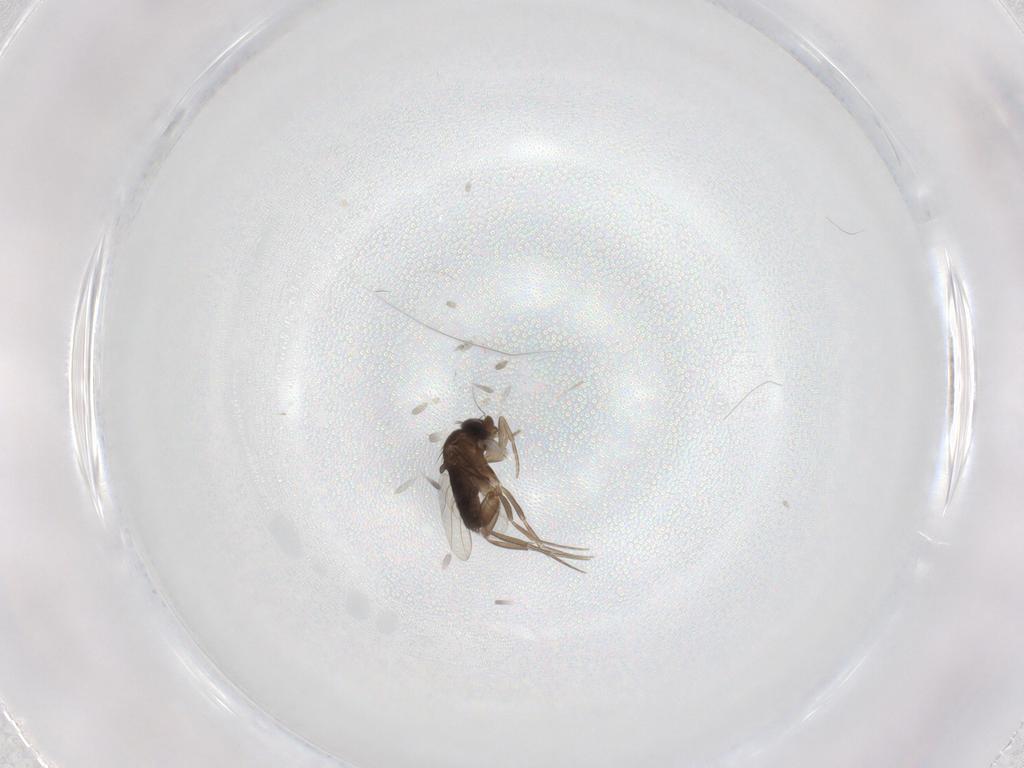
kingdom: Animalia
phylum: Arthropoda
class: Insecta
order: Diptera
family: Phoridae
